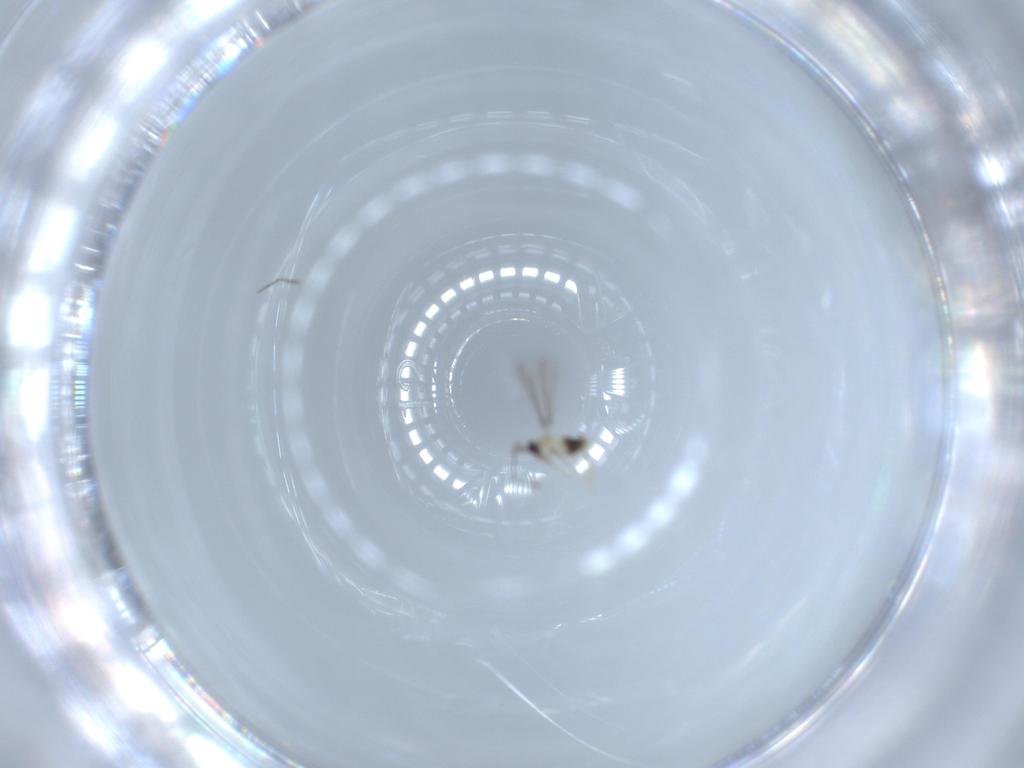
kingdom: Animalia
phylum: Arthropoda
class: Insecta
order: Hymenoptera
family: Mymaridae
